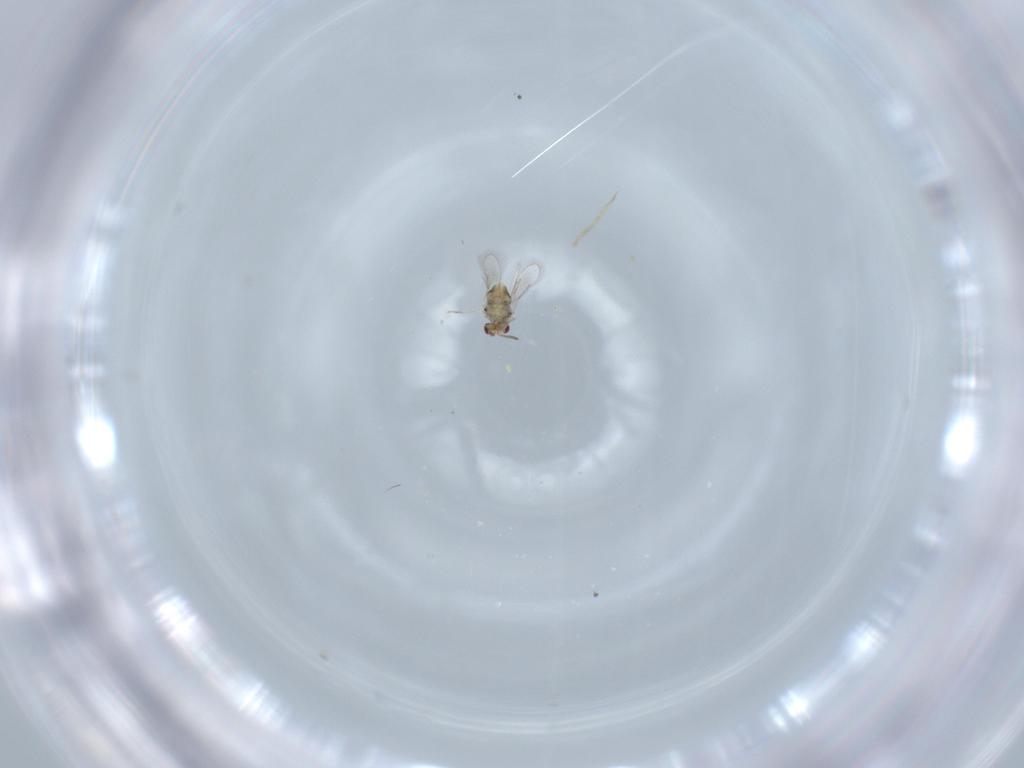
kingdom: Animalia
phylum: Arthropoda
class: Insecta
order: Hymenoptera
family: Aphelinidae
